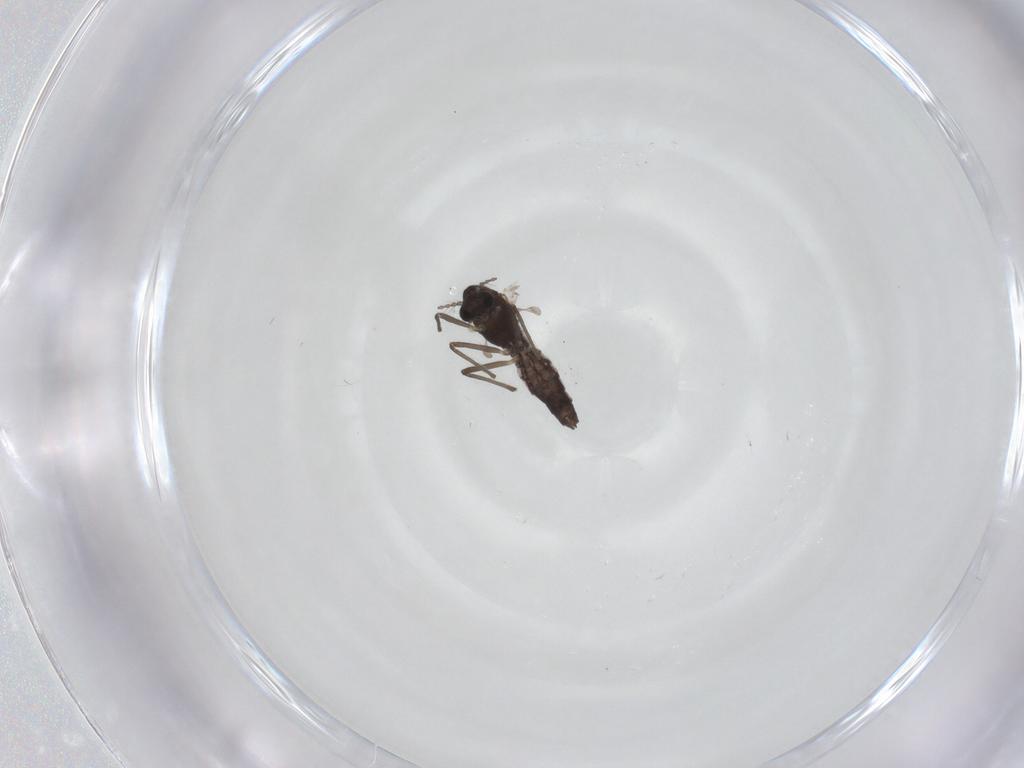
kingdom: Animalia
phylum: Arthropoda
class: Insecta
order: Diptera
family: Chironomidae
